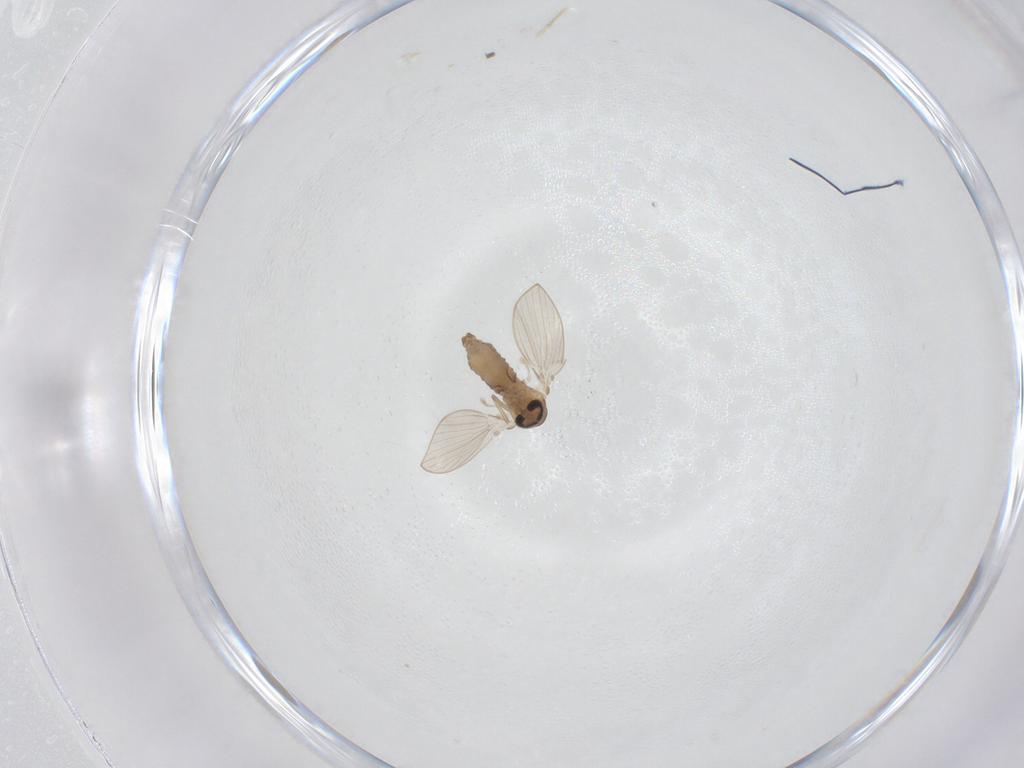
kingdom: Animalia
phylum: Arthropoda
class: Insecta
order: Diptera
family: Psychodidae
